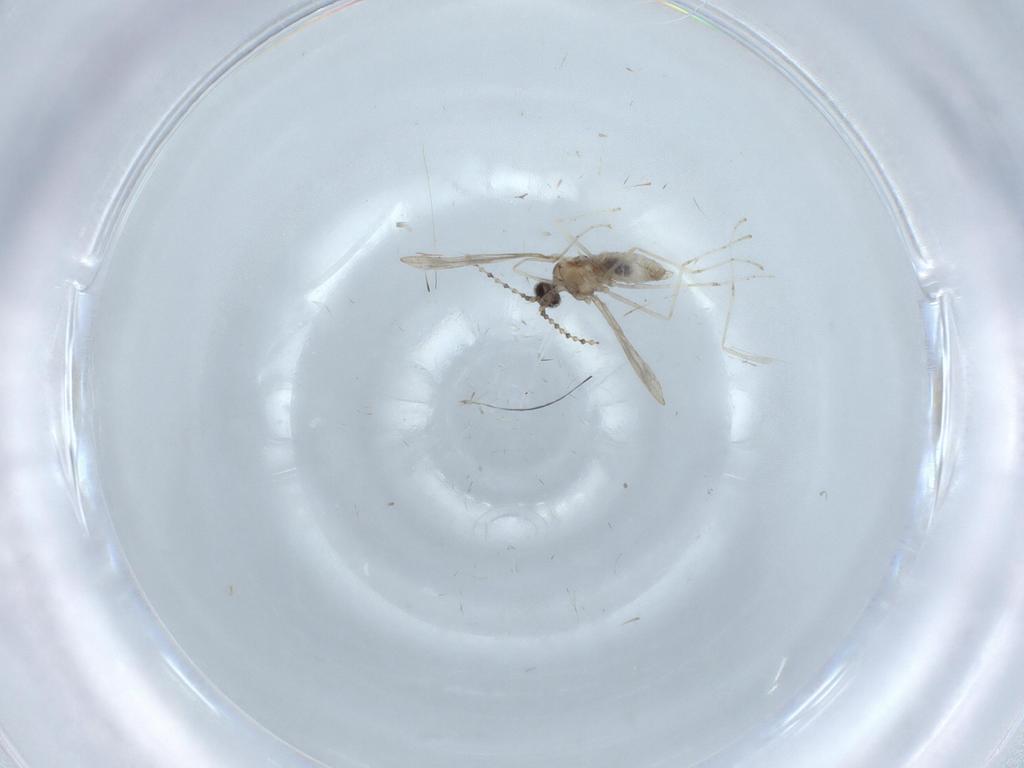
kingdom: Animalia
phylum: Arthropoda
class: Insecta
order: Diptera
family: Cecidomyiidae
